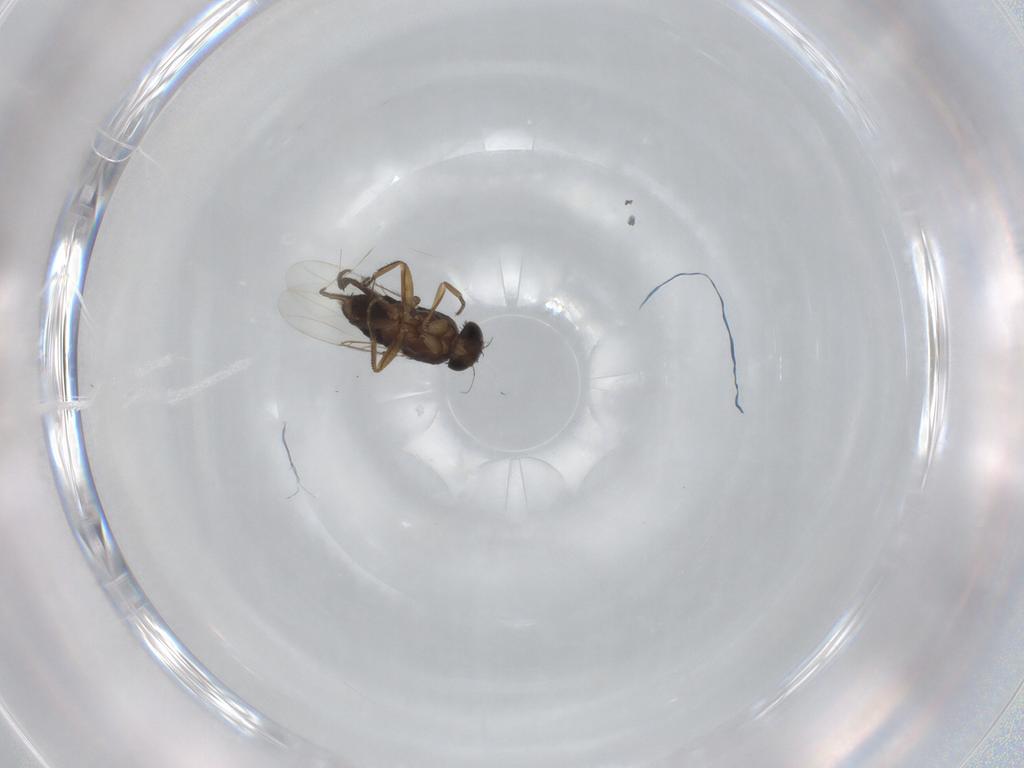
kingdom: Animalia
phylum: Arthropoda
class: Insecta
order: Diptera
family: Phoridae
